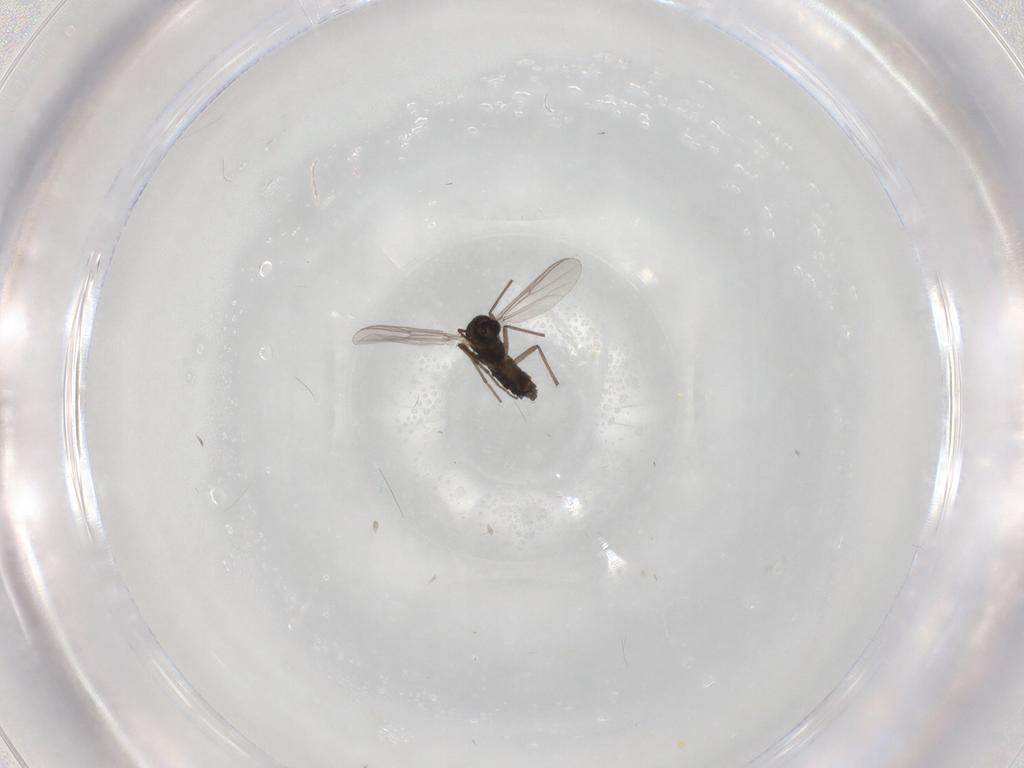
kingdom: Animalia
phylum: Arthropoda
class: Insecta
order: Diptera
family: Chironomidae
